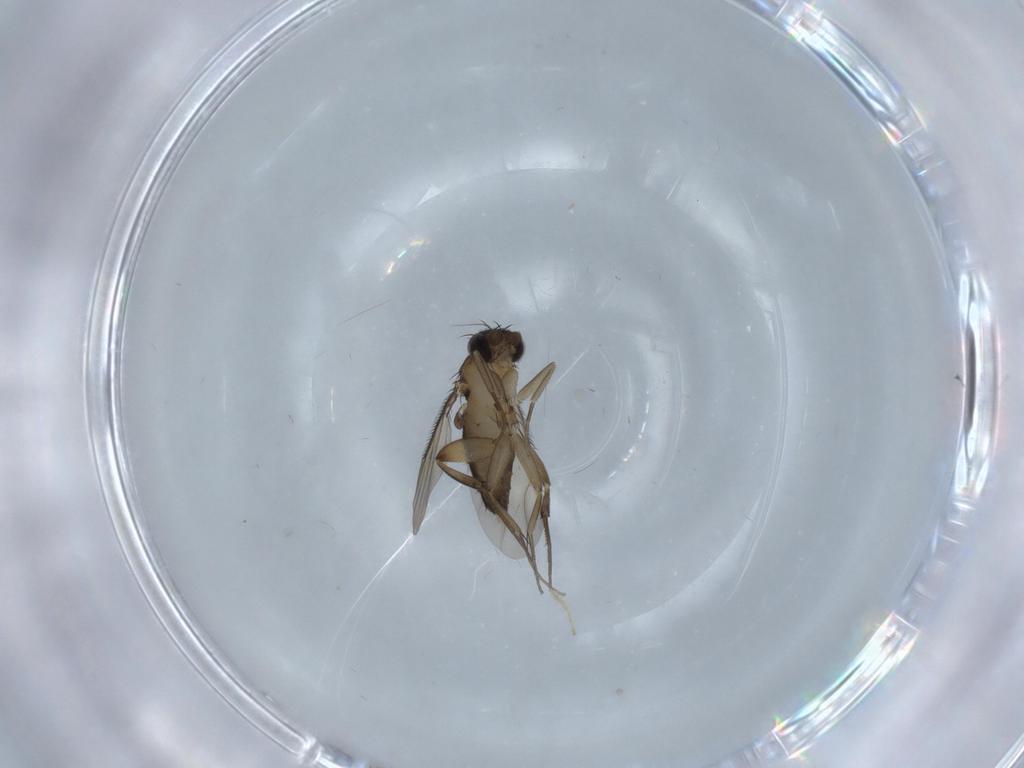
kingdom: Animalia
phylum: Arthropoda
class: Insecta
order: Diptera
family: Phoridae
